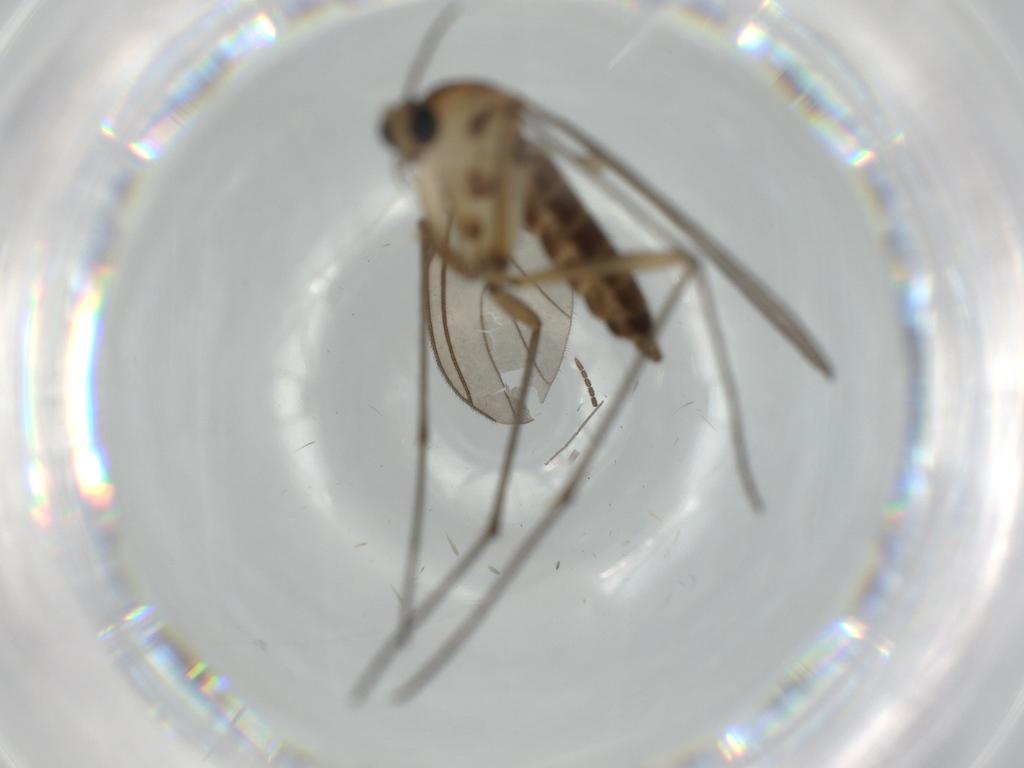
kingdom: Animalia
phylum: Arthropoda
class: Insecta
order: Diptera
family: Sciaridae
